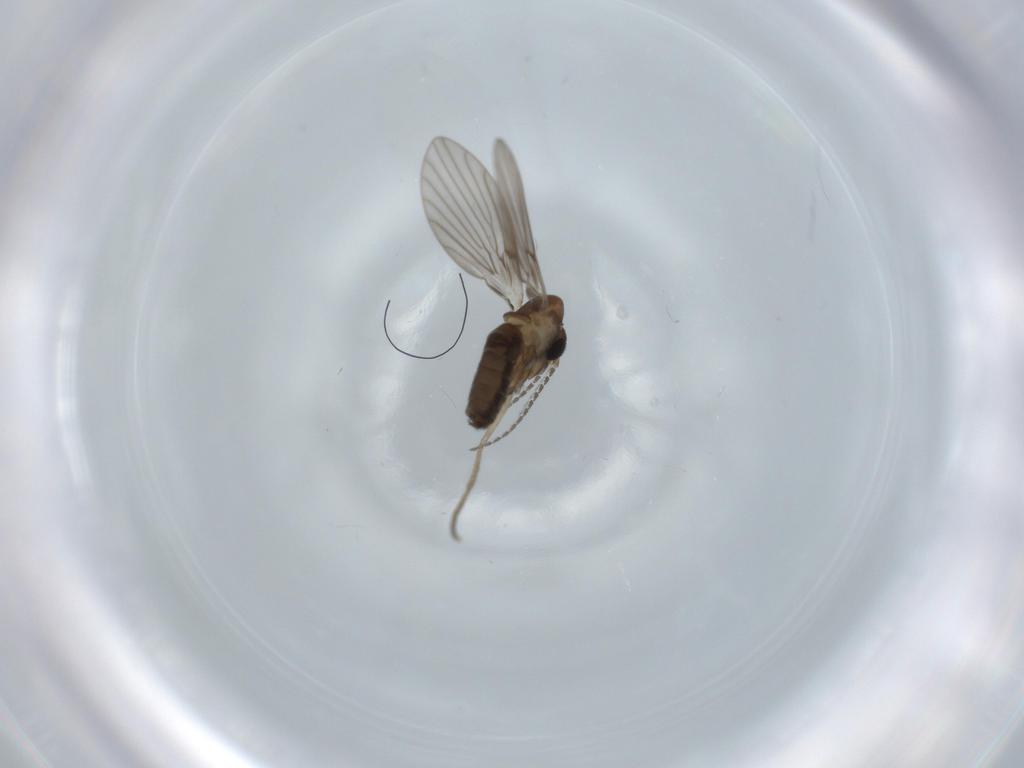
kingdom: Animalia
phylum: Arthropoda
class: Insecta
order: Diptera
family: Psychodidae
